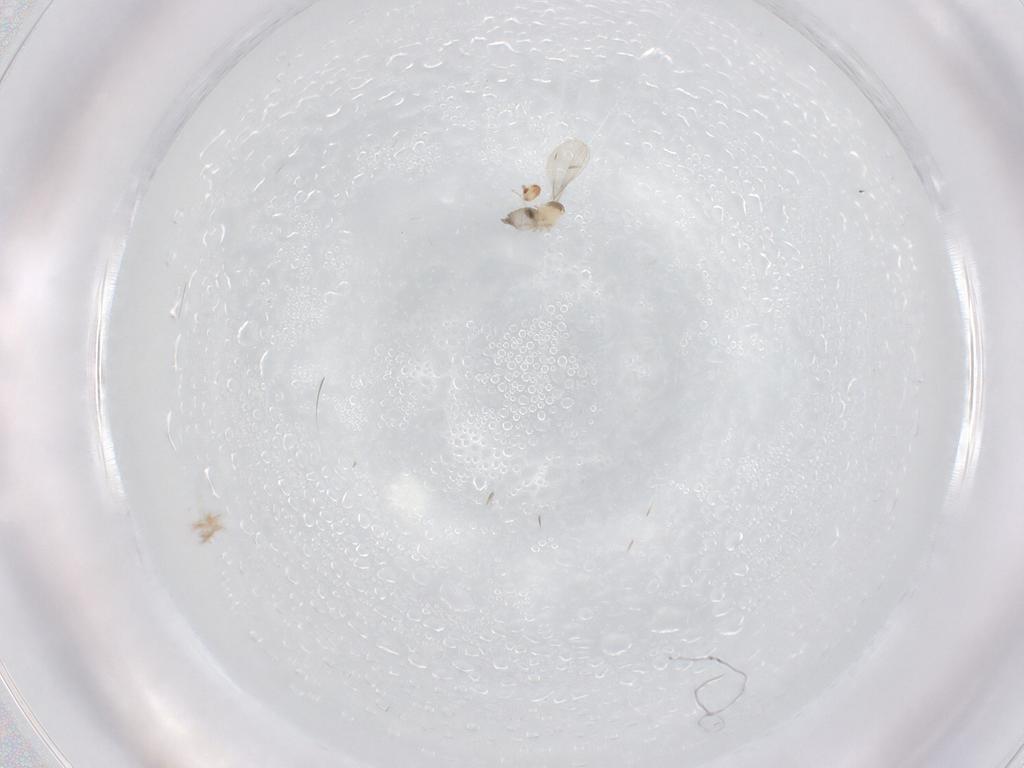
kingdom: Animalia
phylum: Arthropoda
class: Insecta
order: Diptera
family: Cecidomyiidae
